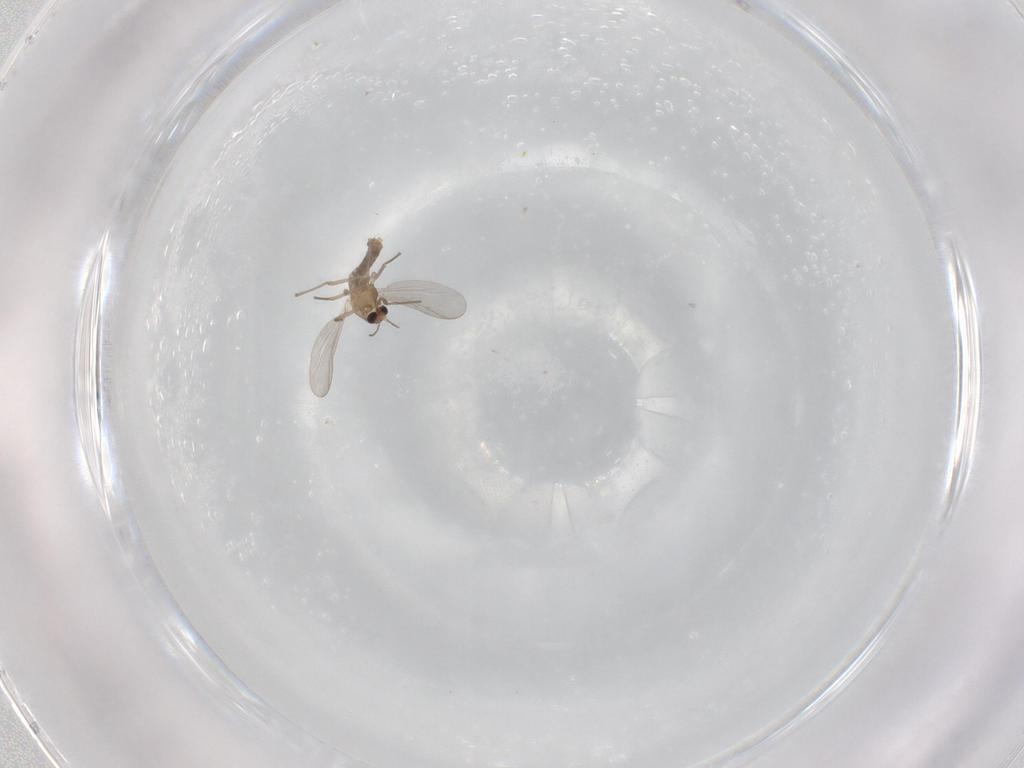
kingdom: Animalia
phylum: Arthropoda
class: Insecta
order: Diptera
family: Chironomidae
